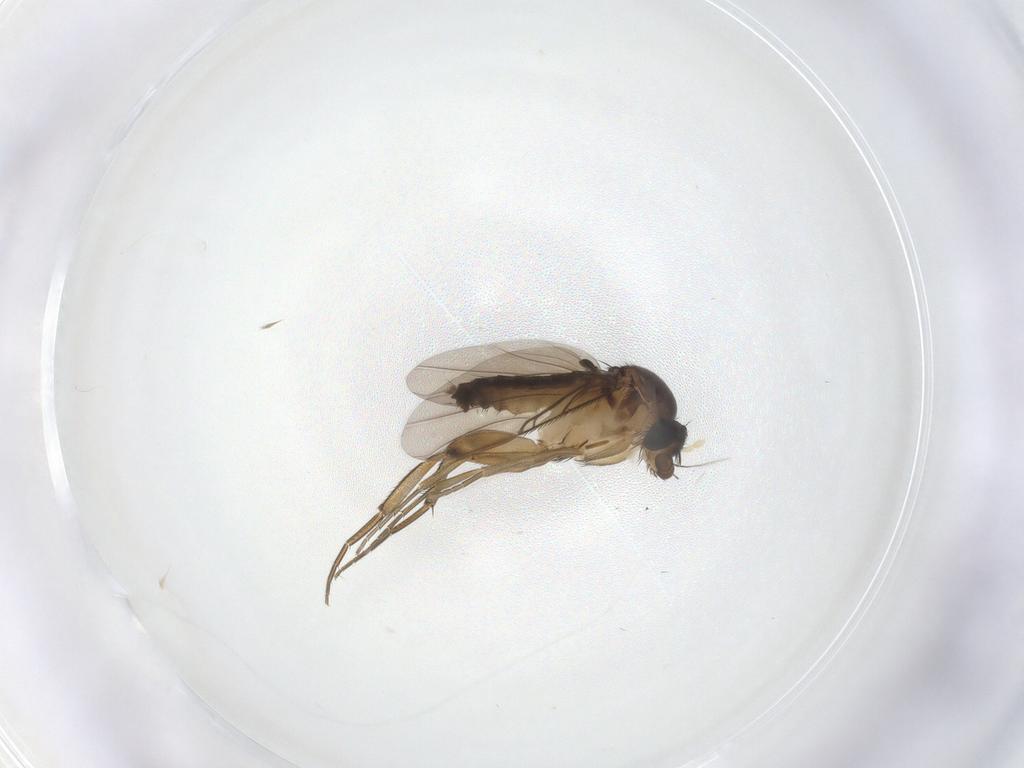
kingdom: Animalia
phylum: Arthropoda
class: Insecta
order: Diptera
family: Phoridae
